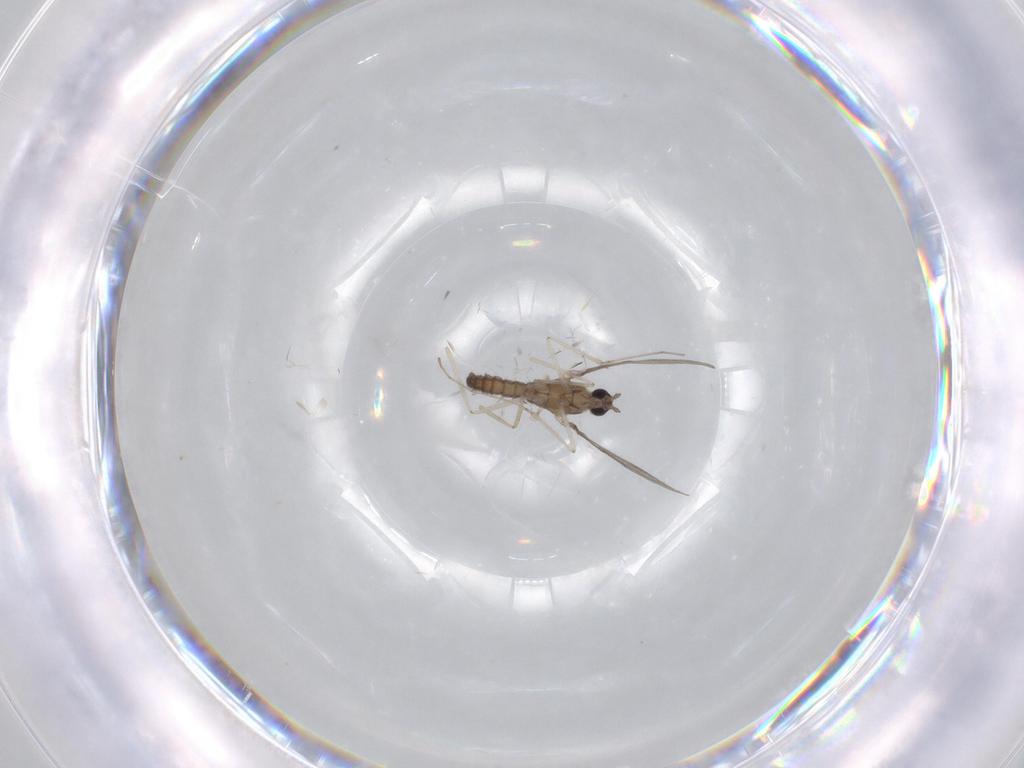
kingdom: Animalia
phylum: Arthropoda
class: Insecta
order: Diptera
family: Cecidomyiidae
